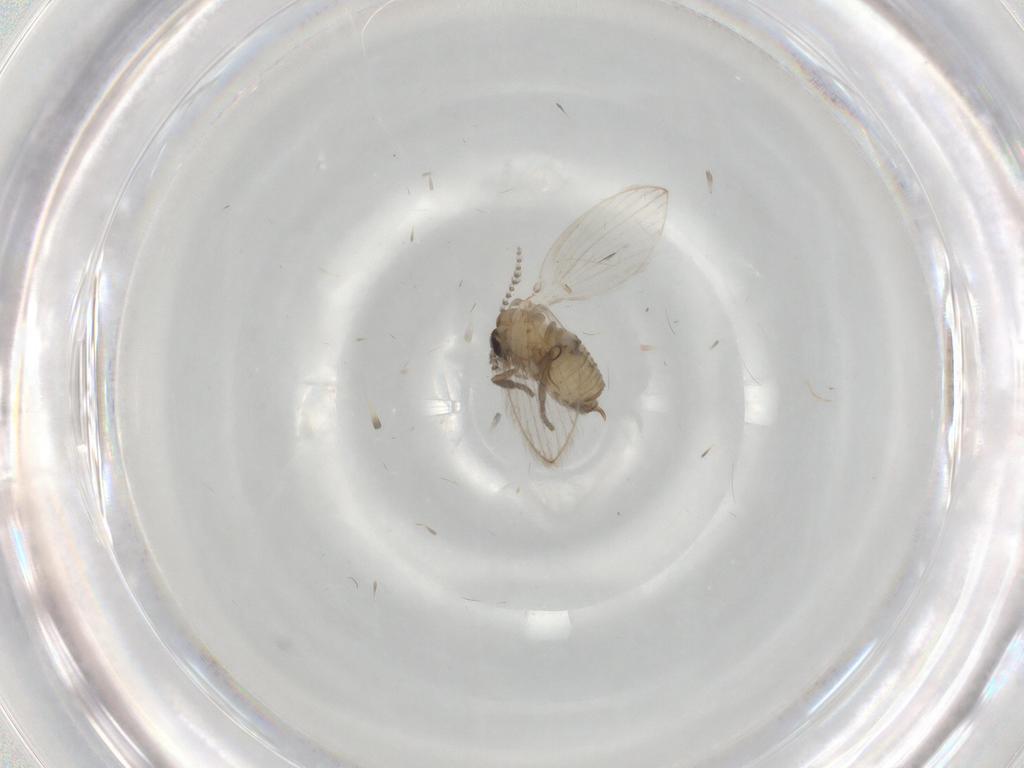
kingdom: Animalia
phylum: Arthropoda
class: Insecta
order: Diptera
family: Psychodidae
